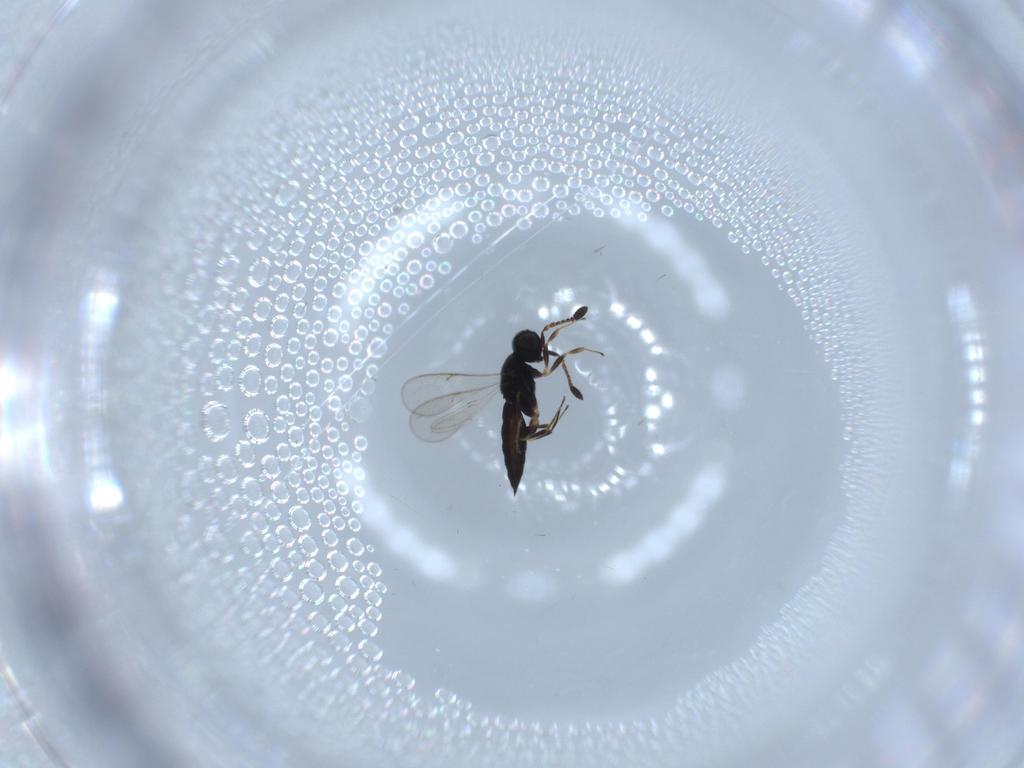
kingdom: Animalia
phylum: Arthropoda
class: Insecta
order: Hymenoptera
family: Scelionidae
